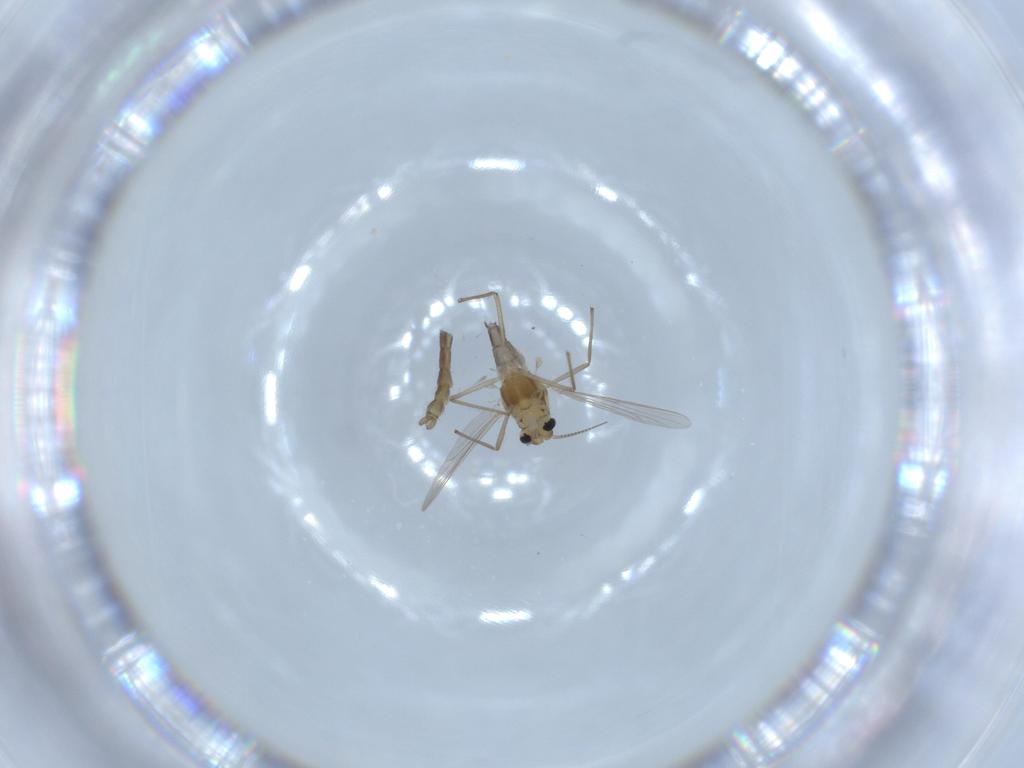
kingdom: Animalia
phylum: Arthropoda
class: Insecta
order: Diptera
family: Chironomidae
